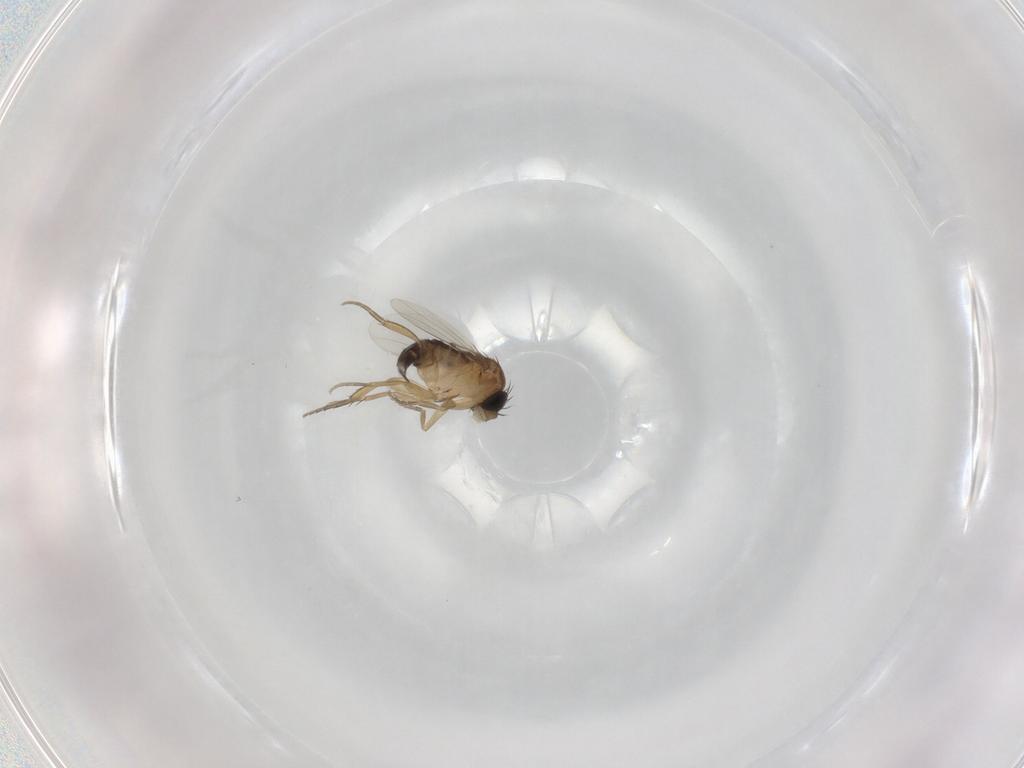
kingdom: Animalia
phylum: Arthropoda
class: Insecta
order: Diptera
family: Phoridae
